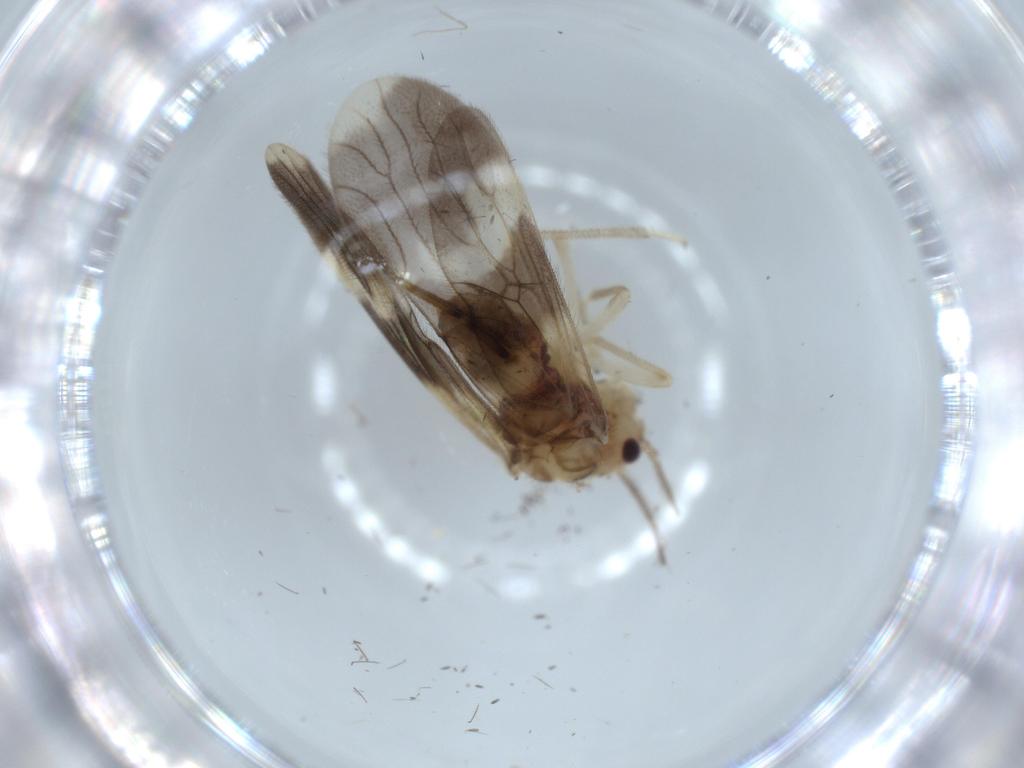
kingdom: Animalia
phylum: Arthropoda
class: Insecta
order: Psocodea
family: Amphipsocidae
